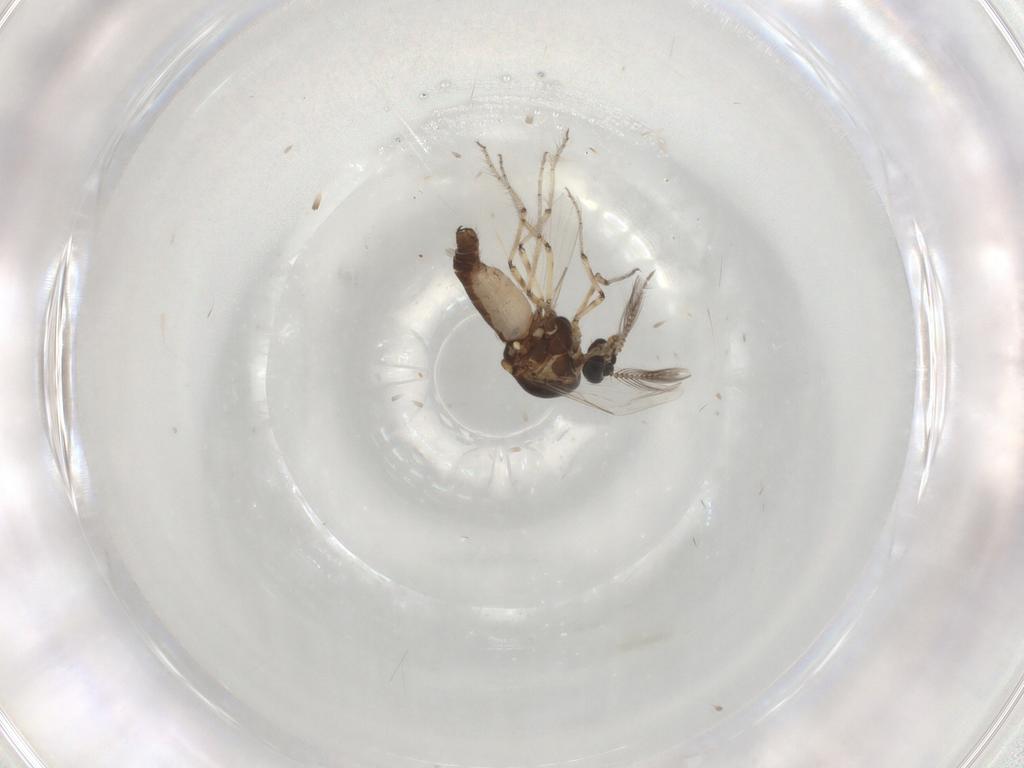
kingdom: Animalia
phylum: Arthropoda
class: Insecta
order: Diptera
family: Ceratopogonidae
